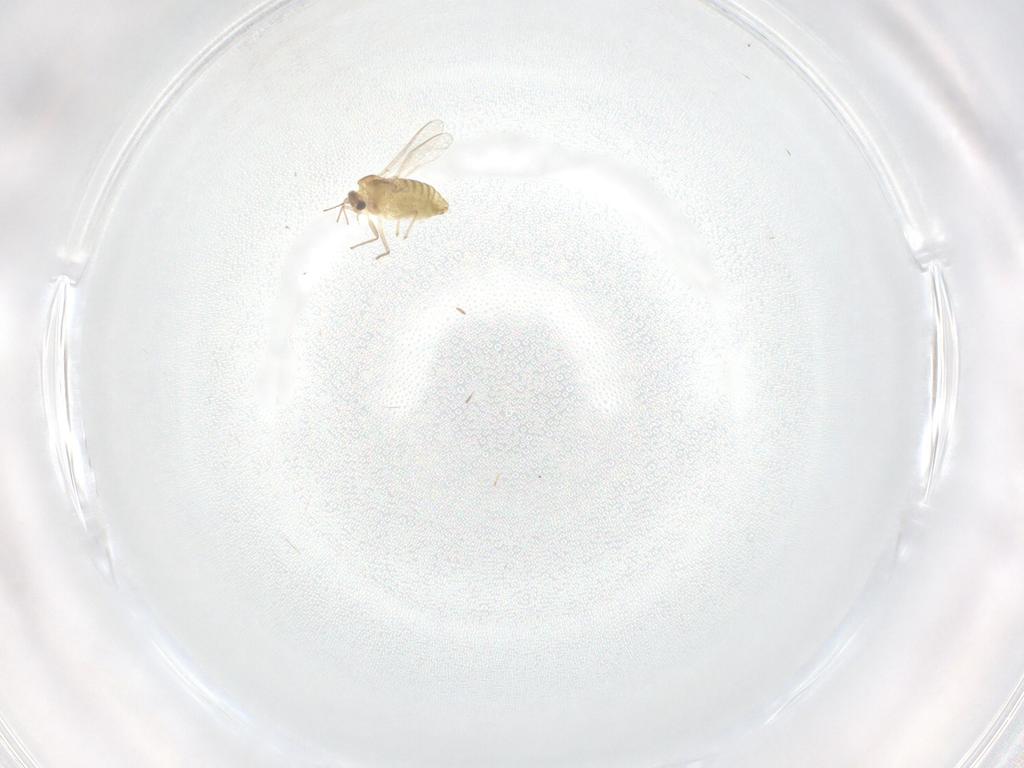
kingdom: Animalia
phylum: Arthropoda
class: Insecta
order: Diptera
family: Chironomidae
